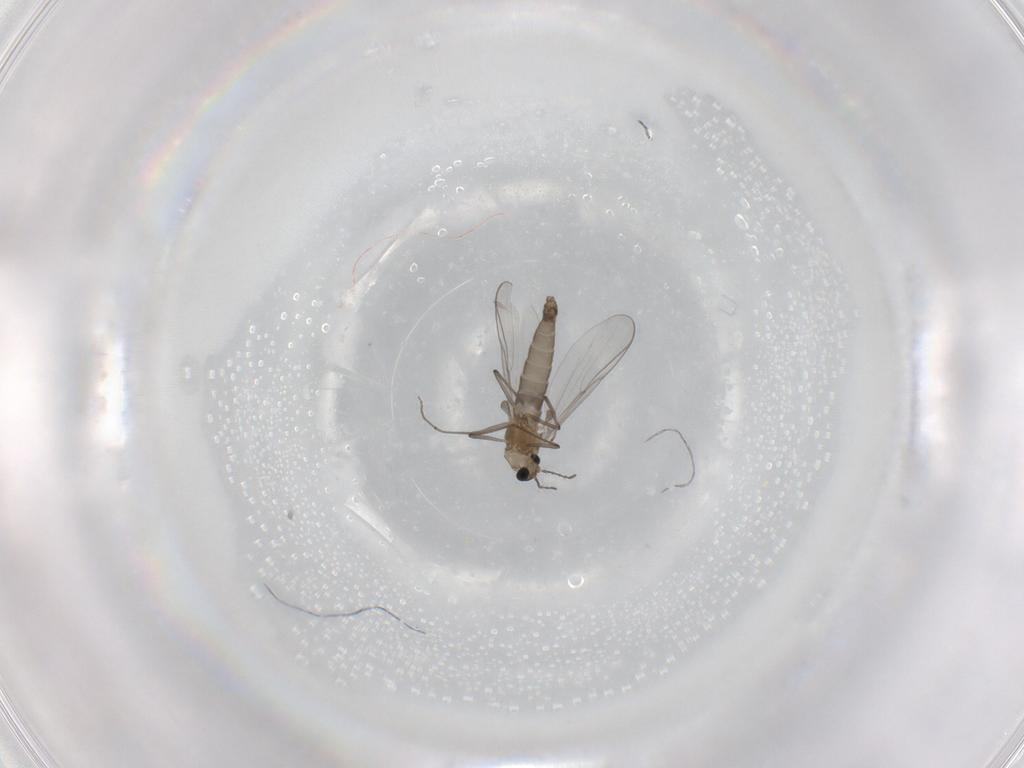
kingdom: Animalia
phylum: Arthropoda
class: Insecta
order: Diptera
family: Chironomidae
